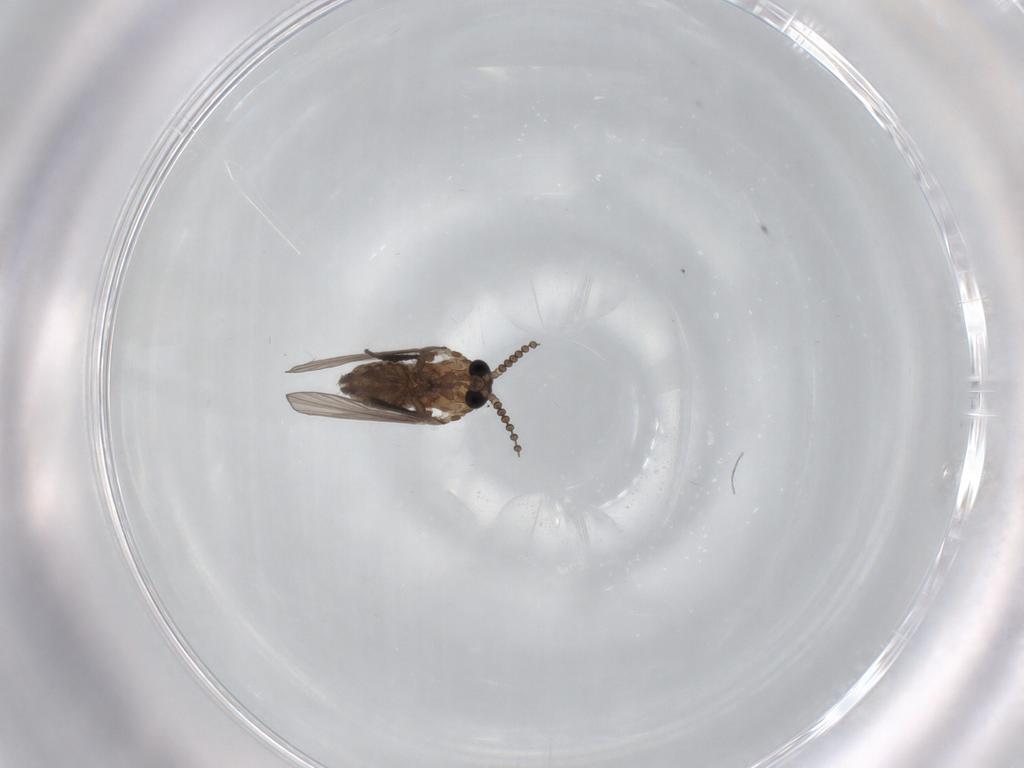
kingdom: Animalia
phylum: Arthropoda
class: Insecta
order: Diptera
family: Psychodidae
